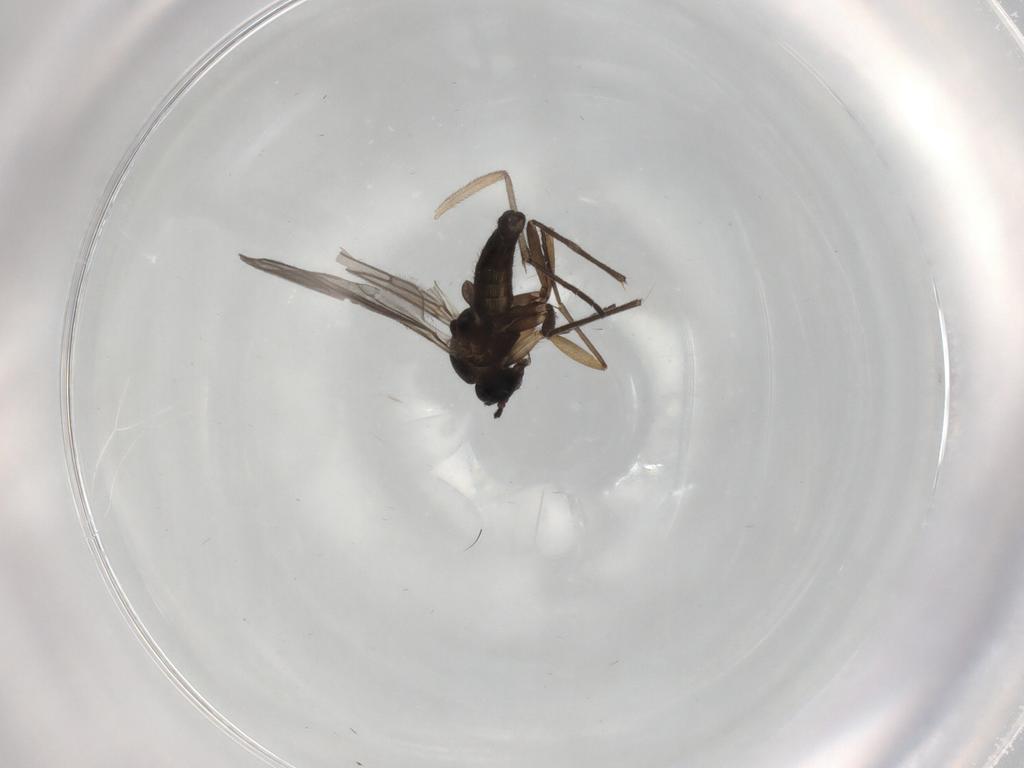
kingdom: Animalia
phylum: Arthropoda
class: Insecta
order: Diptera
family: Sciaridae
